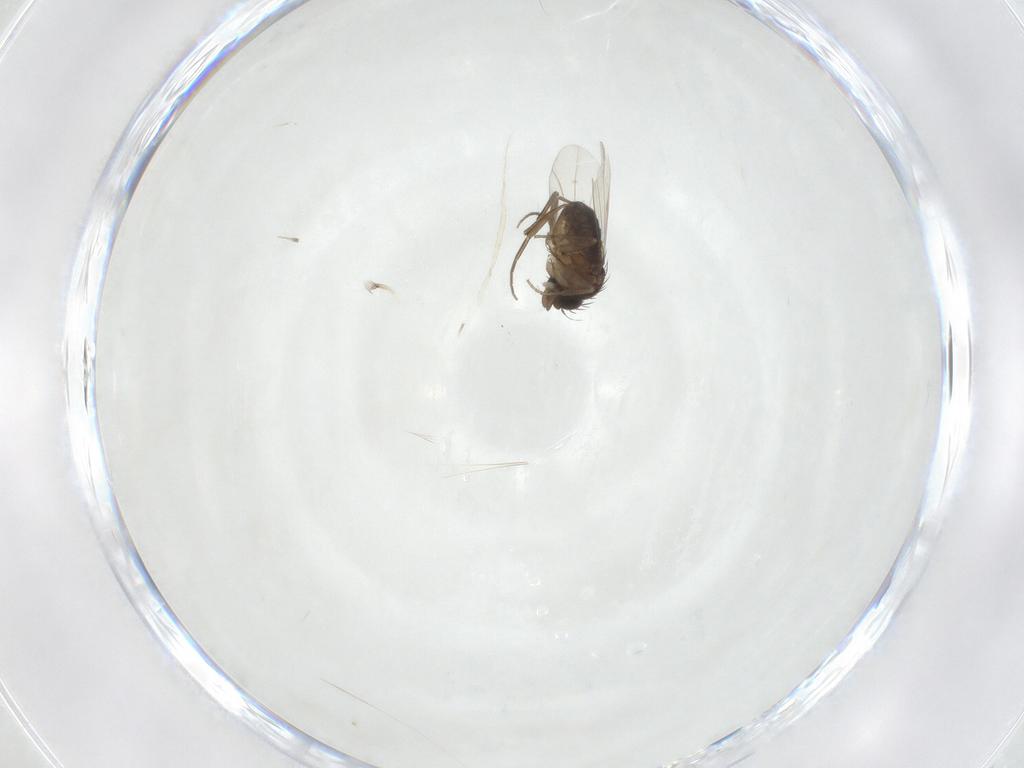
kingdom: Animalia
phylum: Arthropoda
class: Insecta
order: Diptera
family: Phoridae
